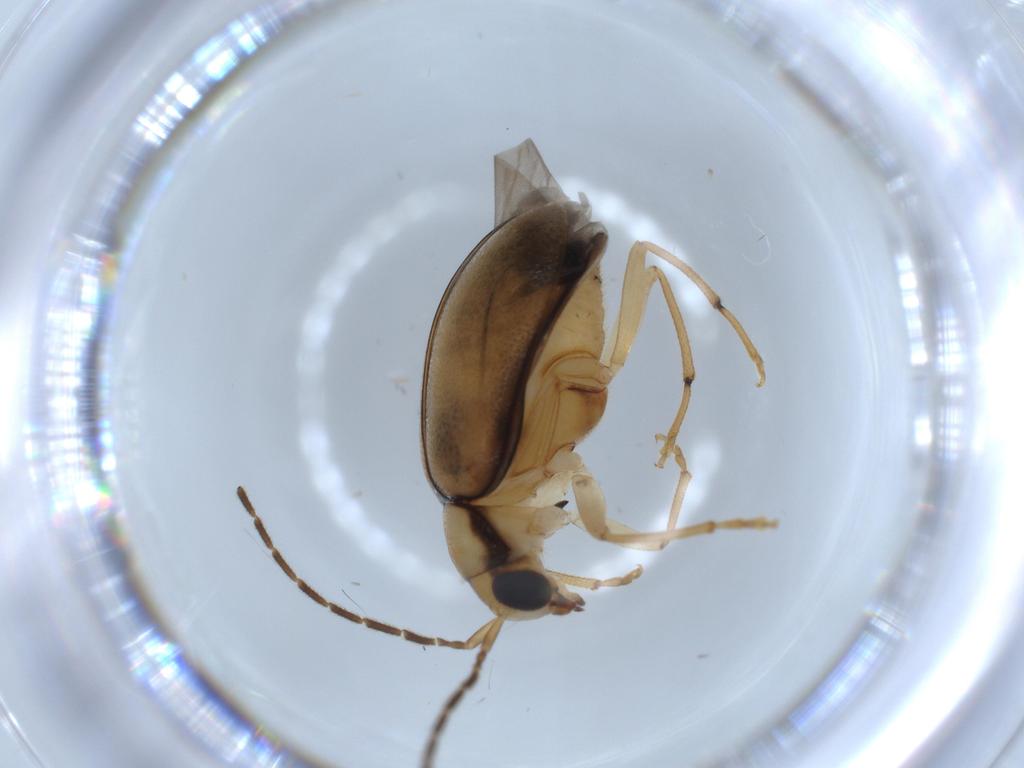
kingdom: Animalia
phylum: Arthropoda
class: Insecta
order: Coleoptera
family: Chrysomelidae
